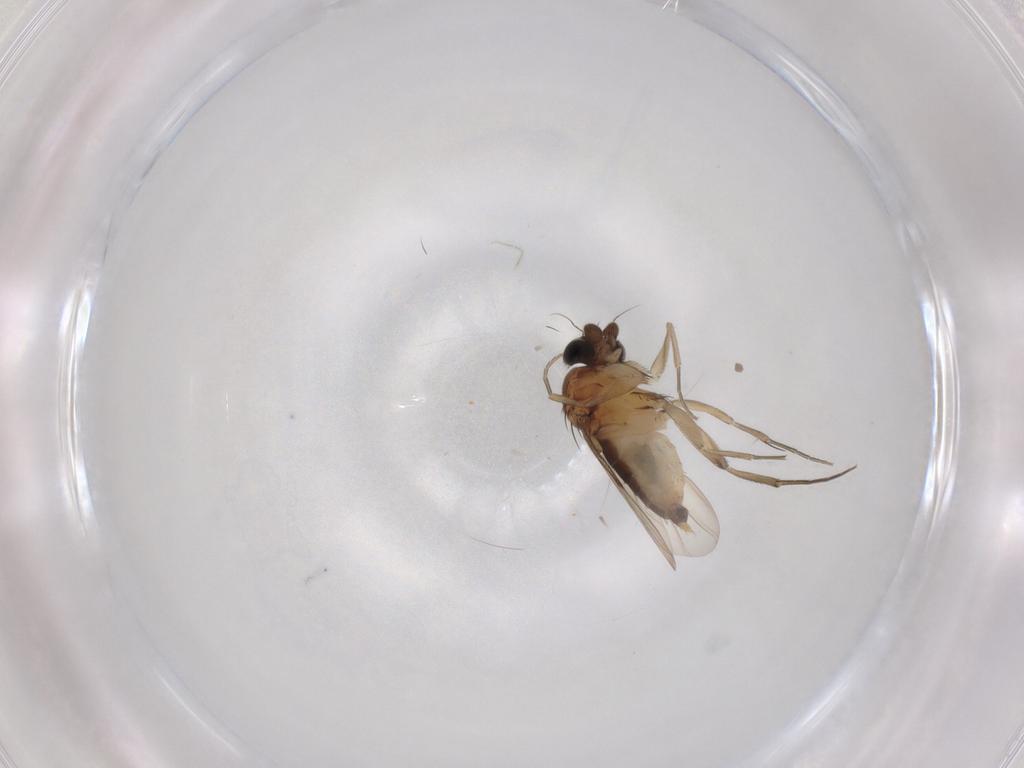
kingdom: Animalia
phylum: Arthropoda
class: Insecta
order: Diptera
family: Phoridae
